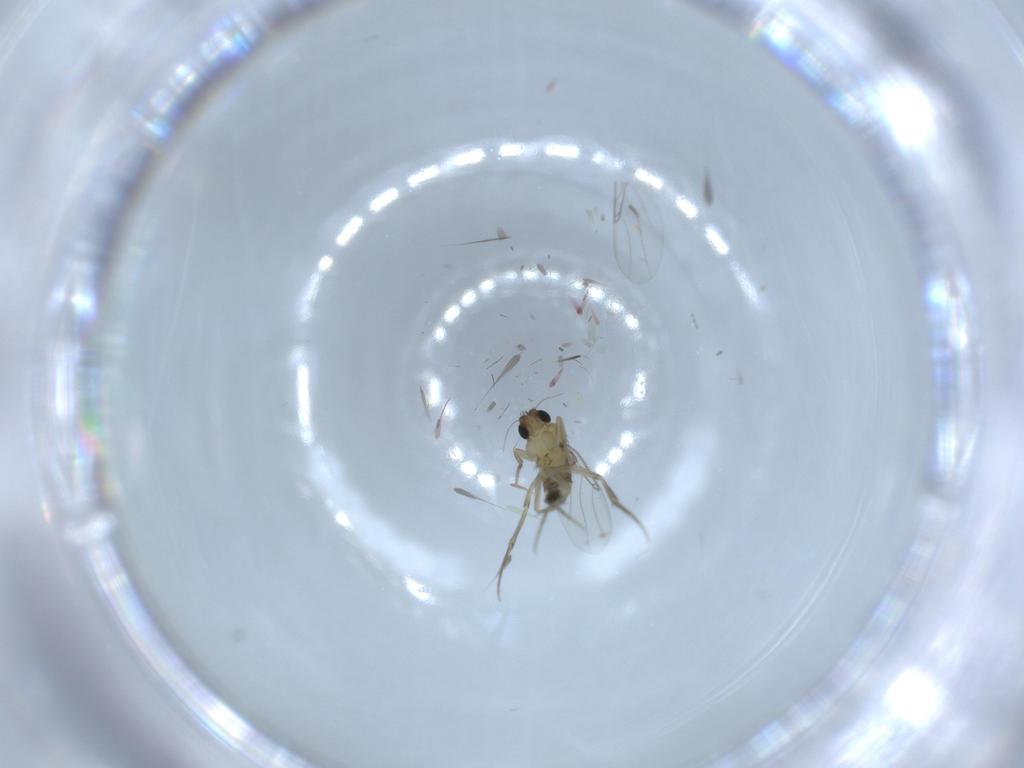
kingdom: Animalia
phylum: Arthropoda
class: Insecta
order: Diptera
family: Phoridae
